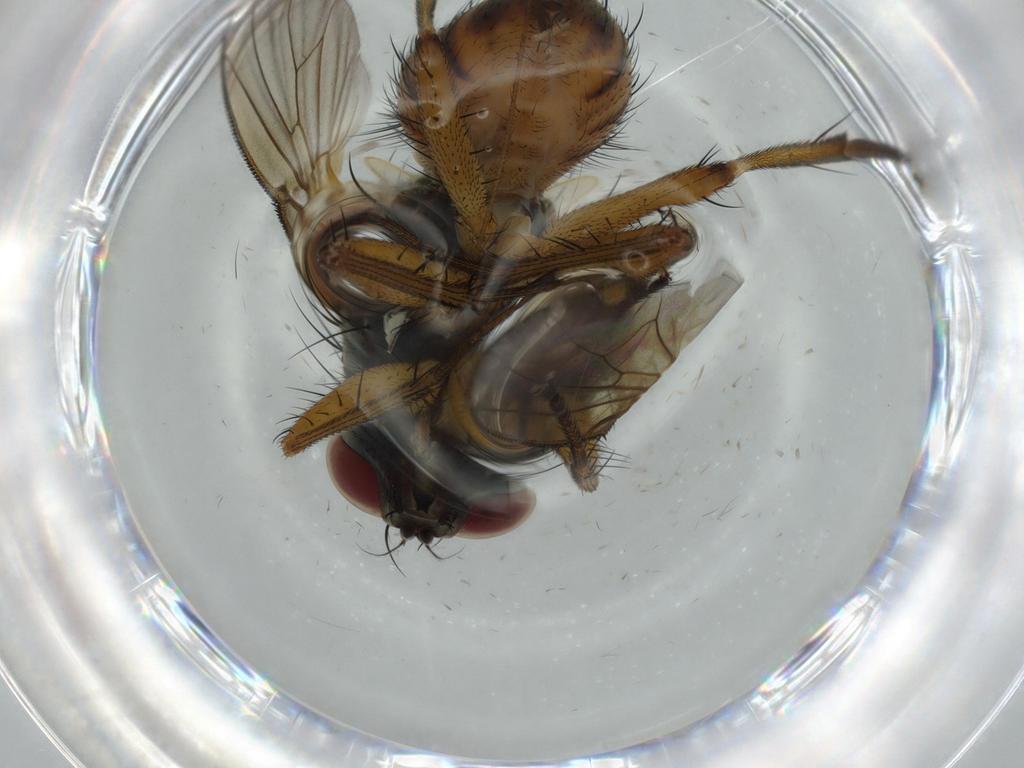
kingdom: Animalia
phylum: Arthropoda
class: Insecta
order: Diptera
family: Muscidae
